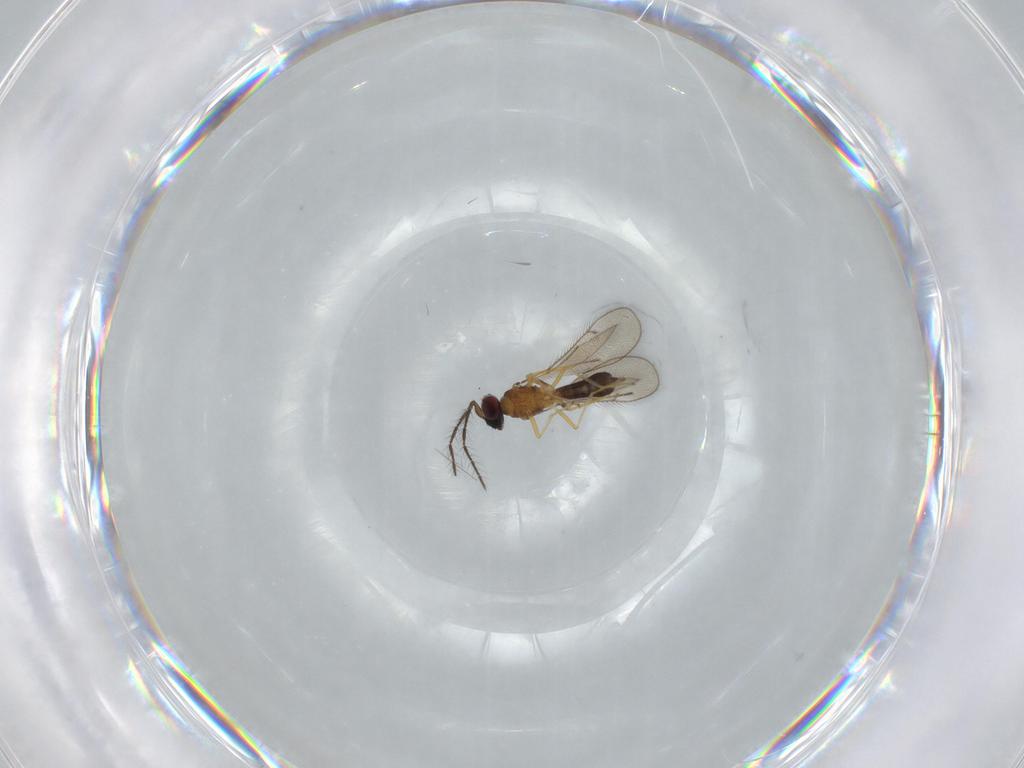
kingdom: Animalia
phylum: Arthropoda
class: Insecta
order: Hymenoptera
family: Eulophidae
